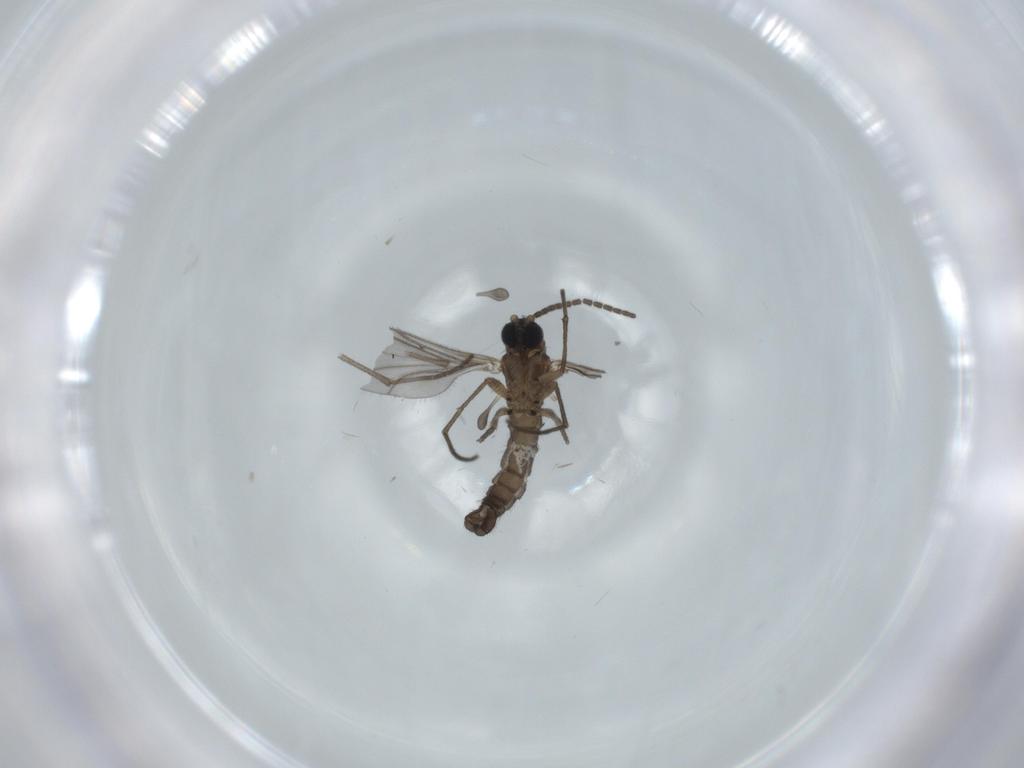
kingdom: Animalia
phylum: Arthropoda
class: Insecta
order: Diptera
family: Sciaridae
